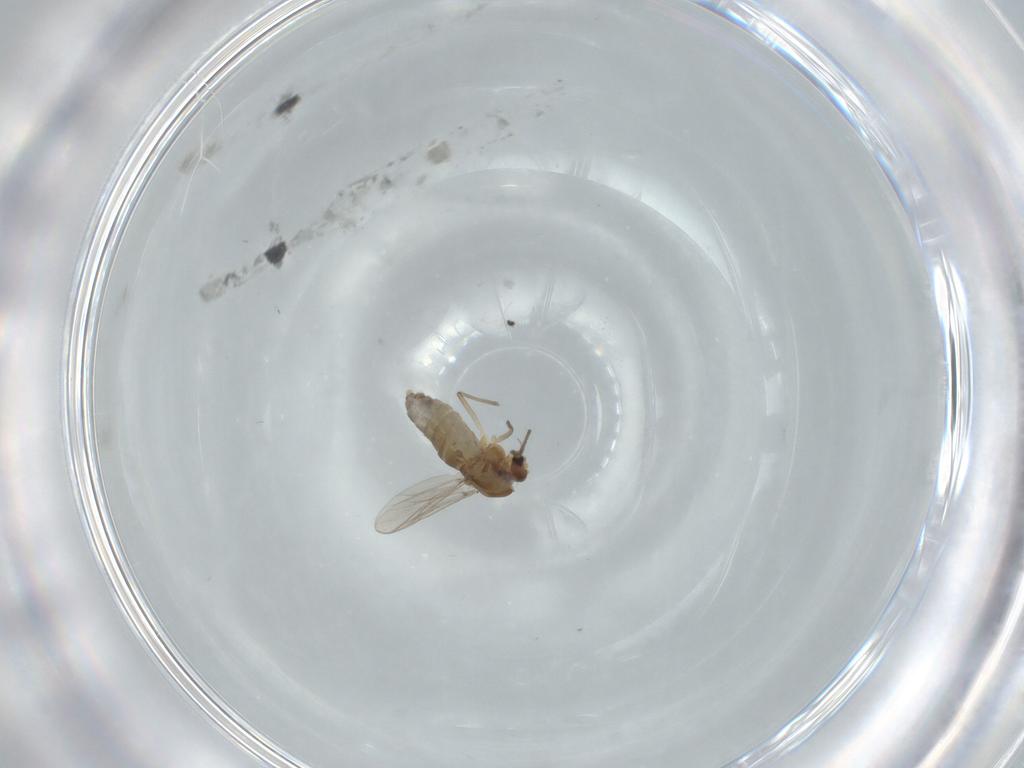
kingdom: Animalia
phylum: Arthropoda
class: Insecta
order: Diptera
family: Chironomidae
